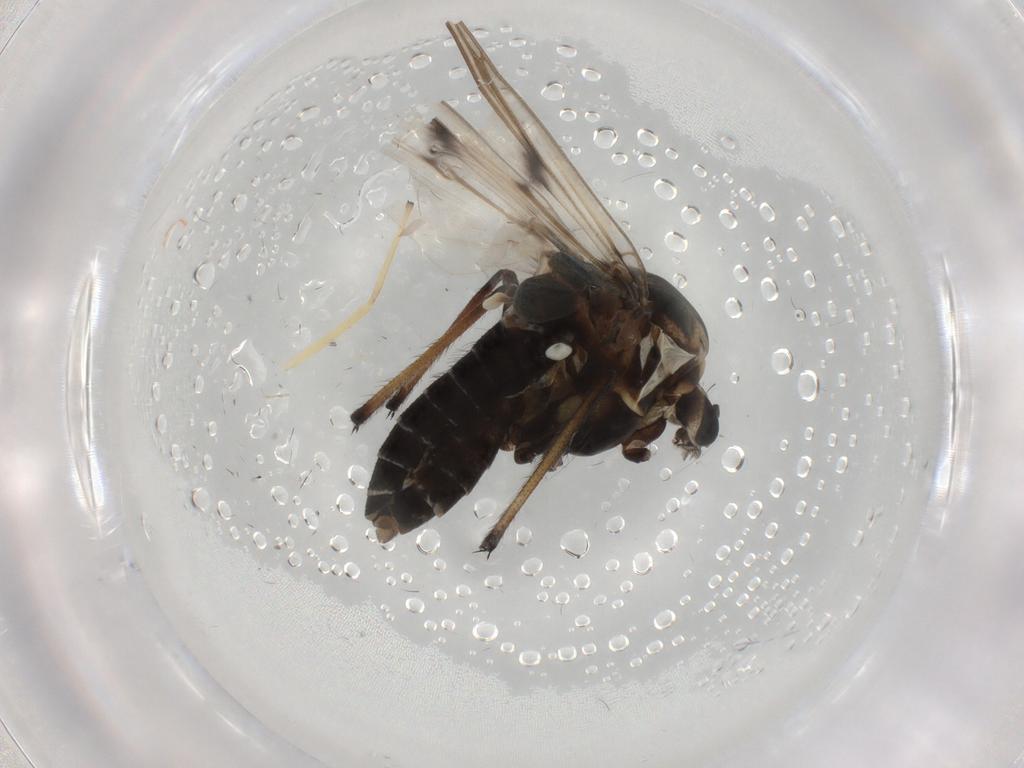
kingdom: Animalia
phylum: Arthropoda
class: Insecta
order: Diptera
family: Chironomidae
